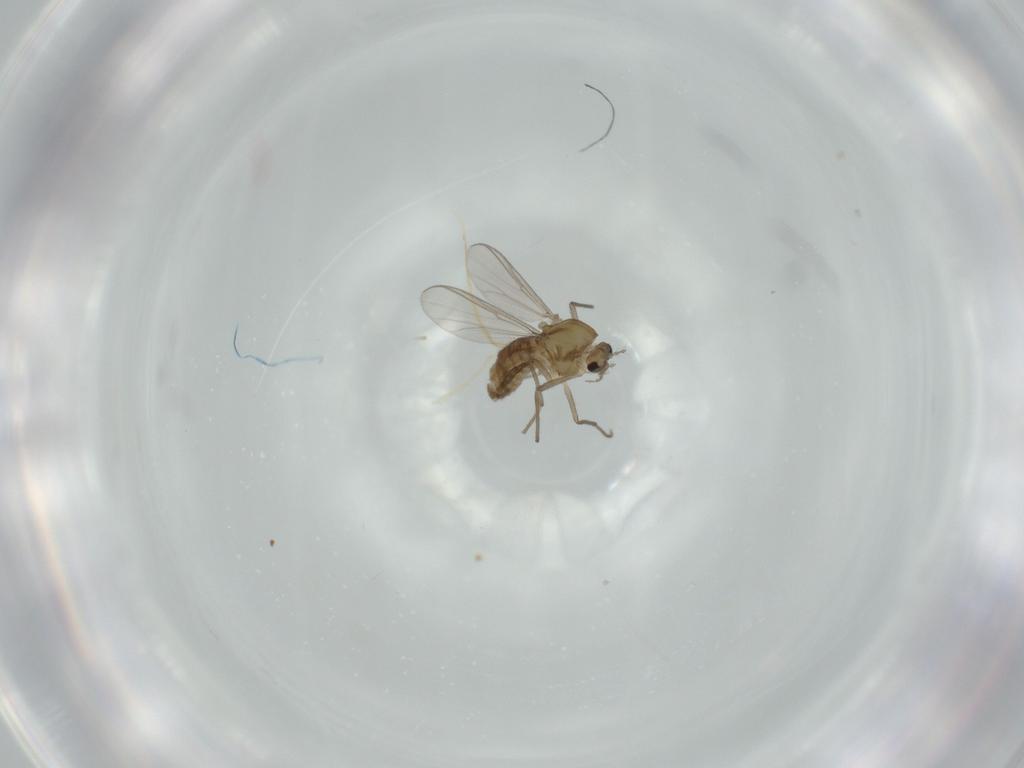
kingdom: Animalia
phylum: Arthropoda
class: Insecta
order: Diptera
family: Chironomidae
